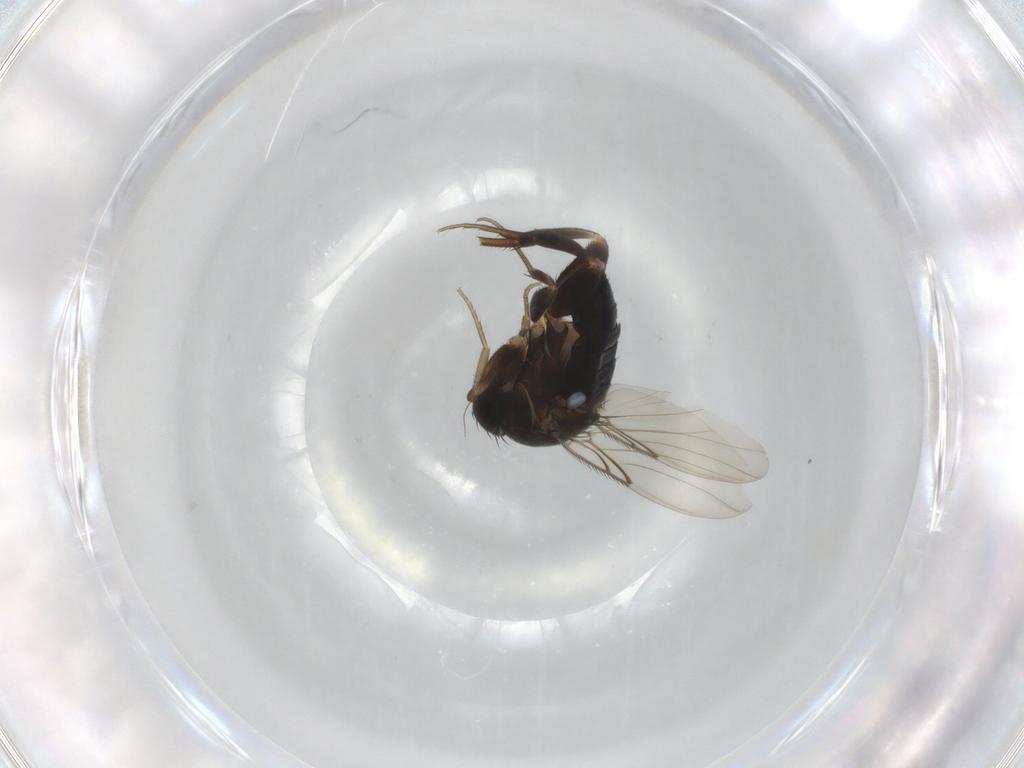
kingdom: Animalia
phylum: Arthropoda
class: Insecta
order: Diptera
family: Phoridae
